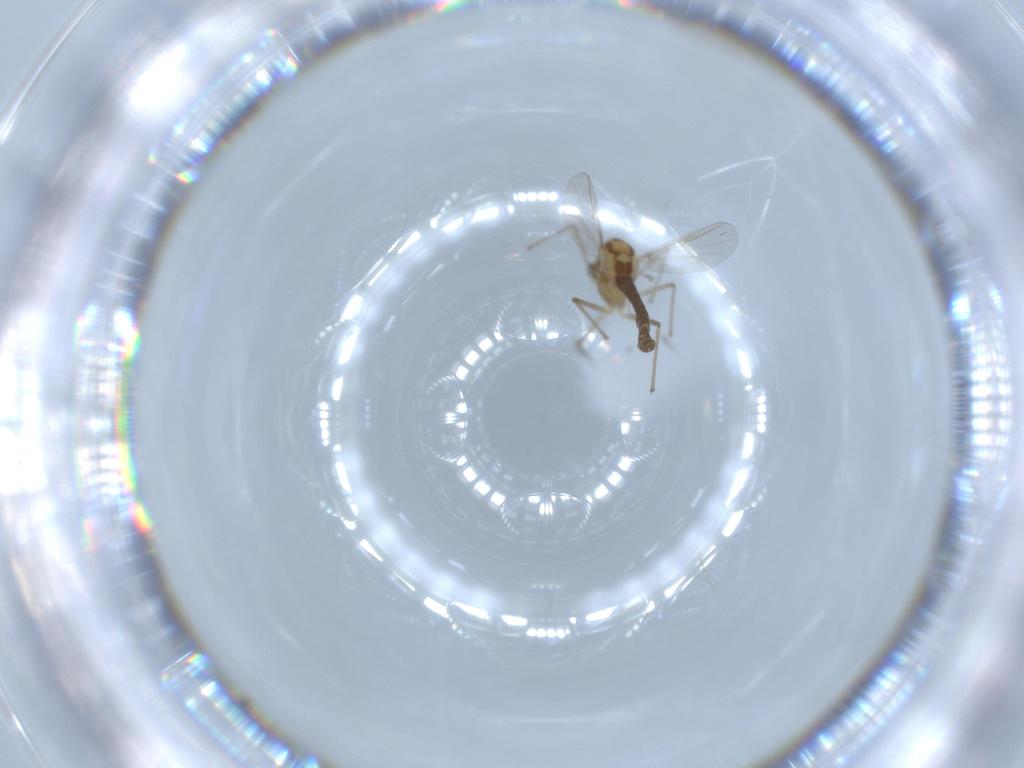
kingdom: Animalia
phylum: Arthropoda
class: Insecta
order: Diptera
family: Chironomidae
